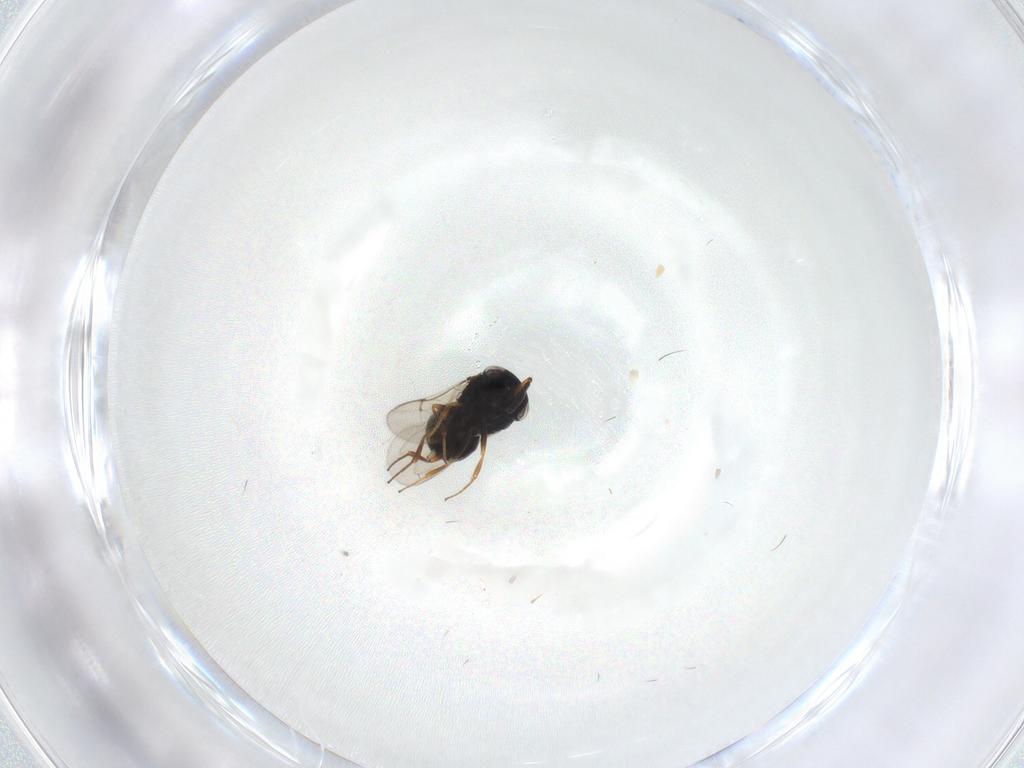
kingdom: Animalia
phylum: Arthropoda
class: Insecta
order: Hymenoptera
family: Scelionidae
